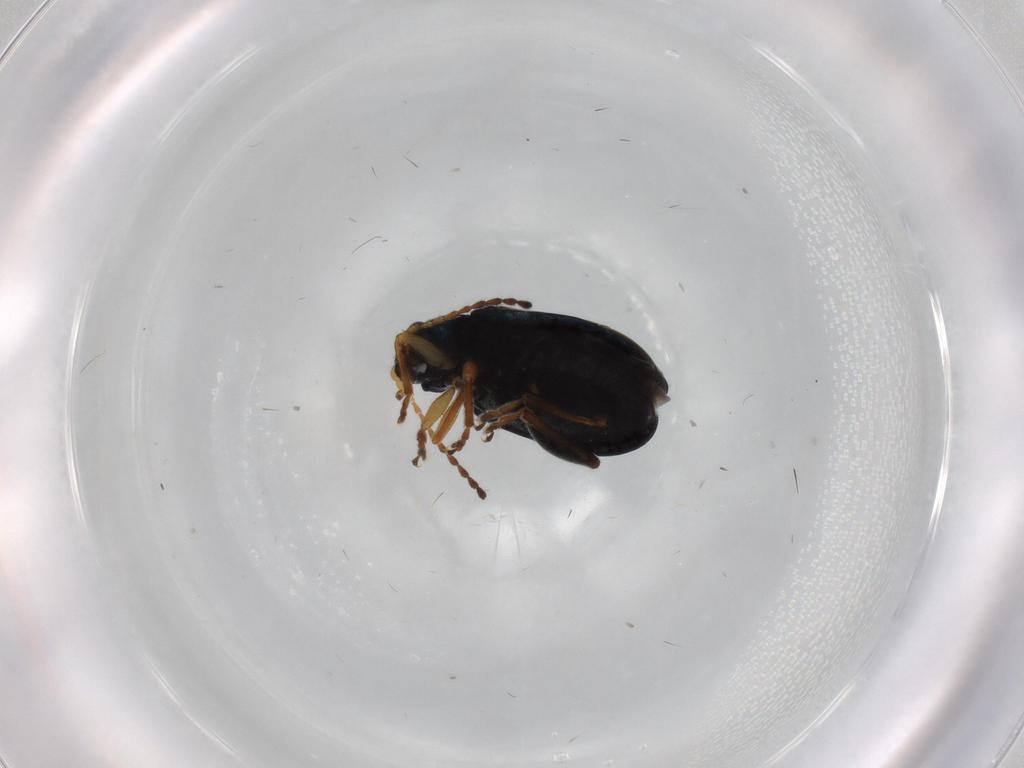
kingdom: Animalia
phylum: Arthropoda
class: Insecta
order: Coleoptera
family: Chrysomelidae
